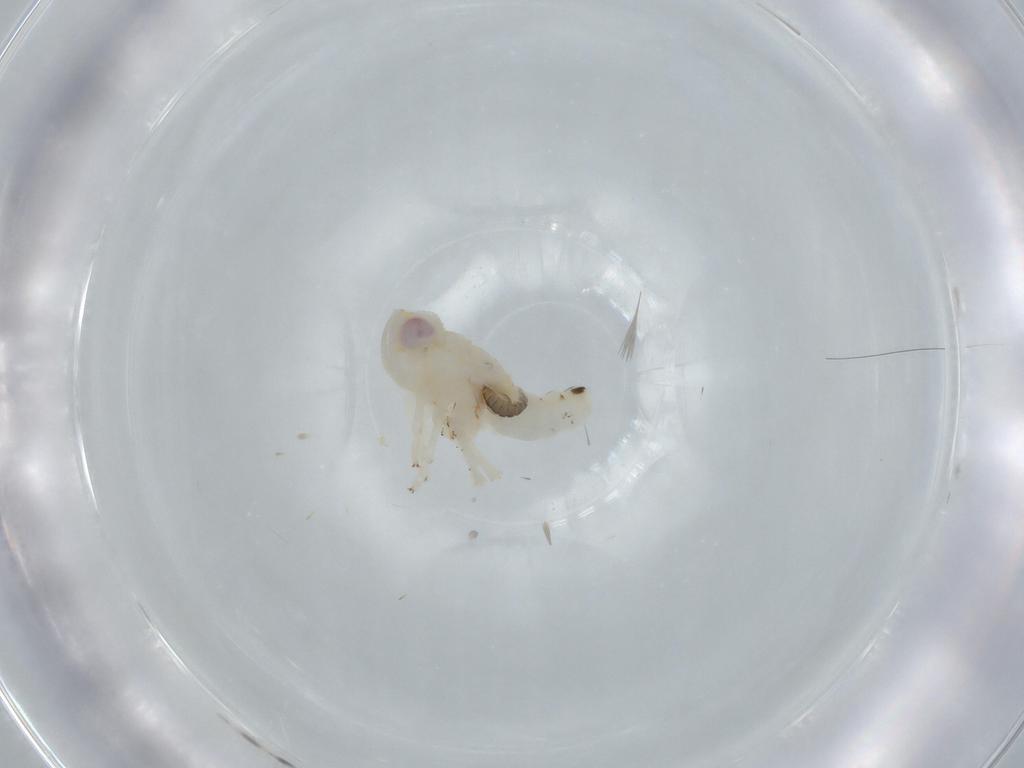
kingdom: Animalia
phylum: Arthropoda
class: Insecta
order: Hemiptera
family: Nogodinidae
